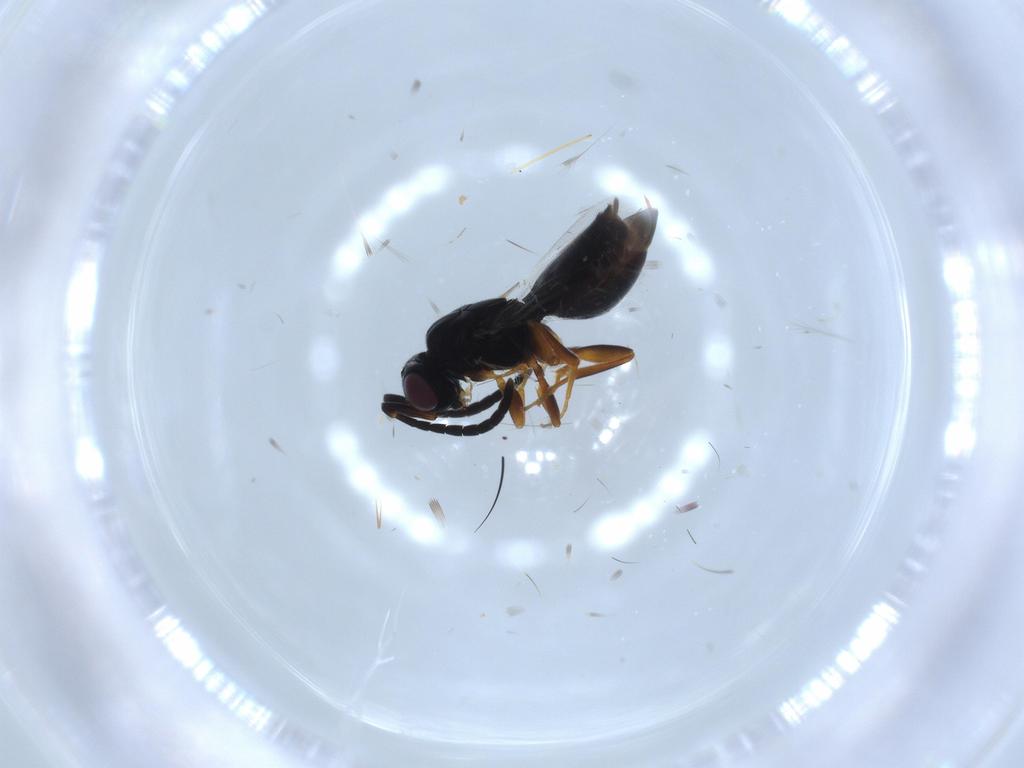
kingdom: Animalia
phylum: Arthropoda
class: Insecta
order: Hymenoptera
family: Megaspilidae
